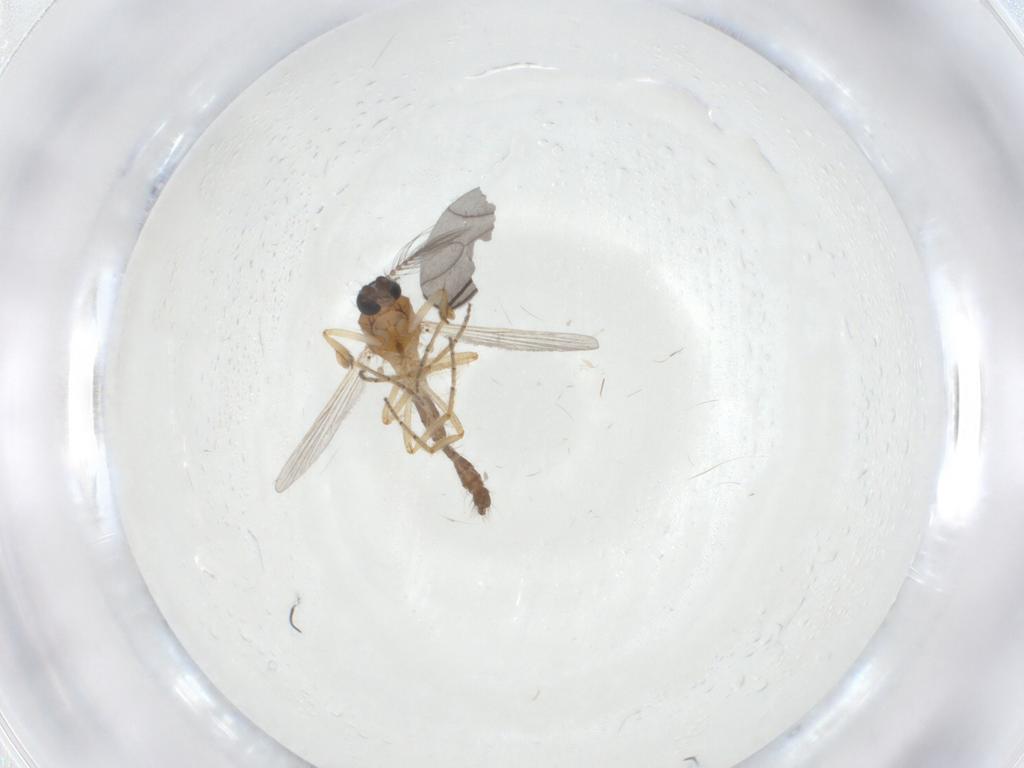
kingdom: Animalia
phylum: Arthropoda
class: Insecta
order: Diptera
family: Ceratopogonidae
